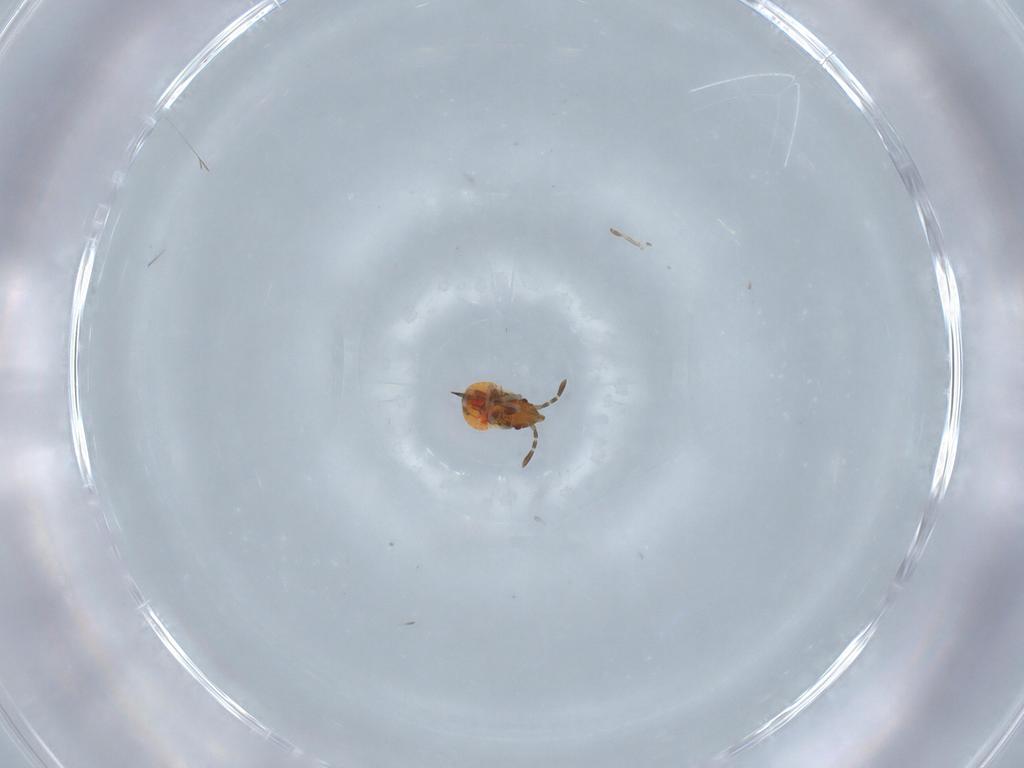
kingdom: Animalia
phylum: Arthropoda
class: Insecta
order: Hemiptera
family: Rhyparochromidae
